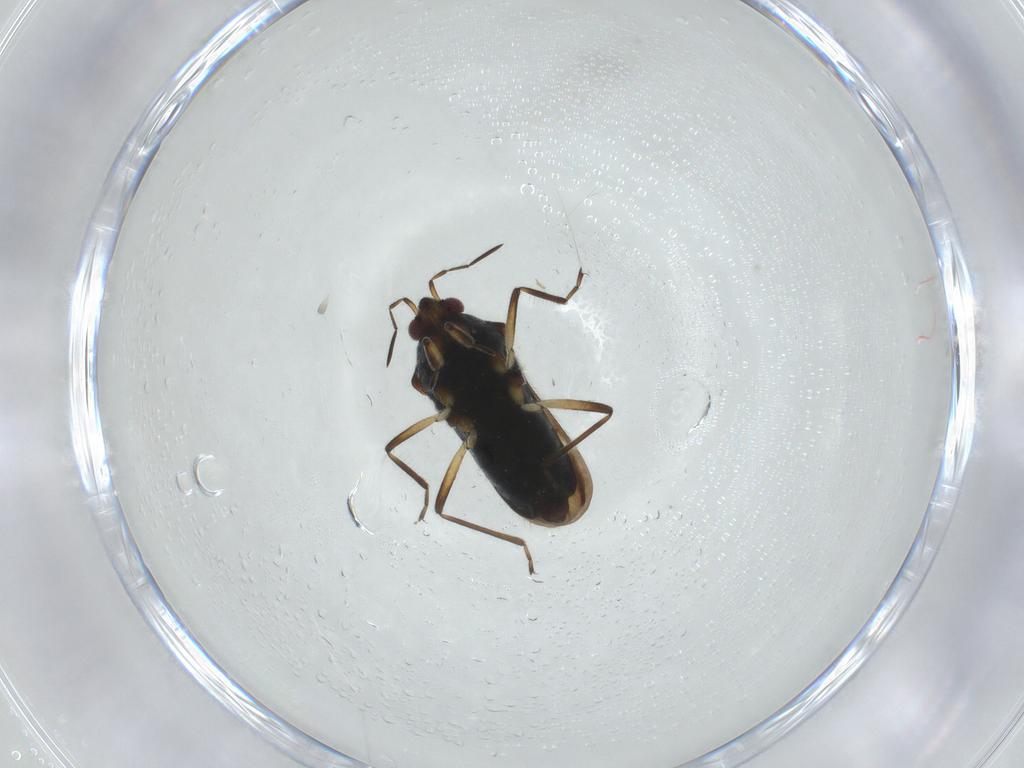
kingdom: Animalia
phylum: Arthropoda
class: Insecta
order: Hemiptera
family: Veliidae
